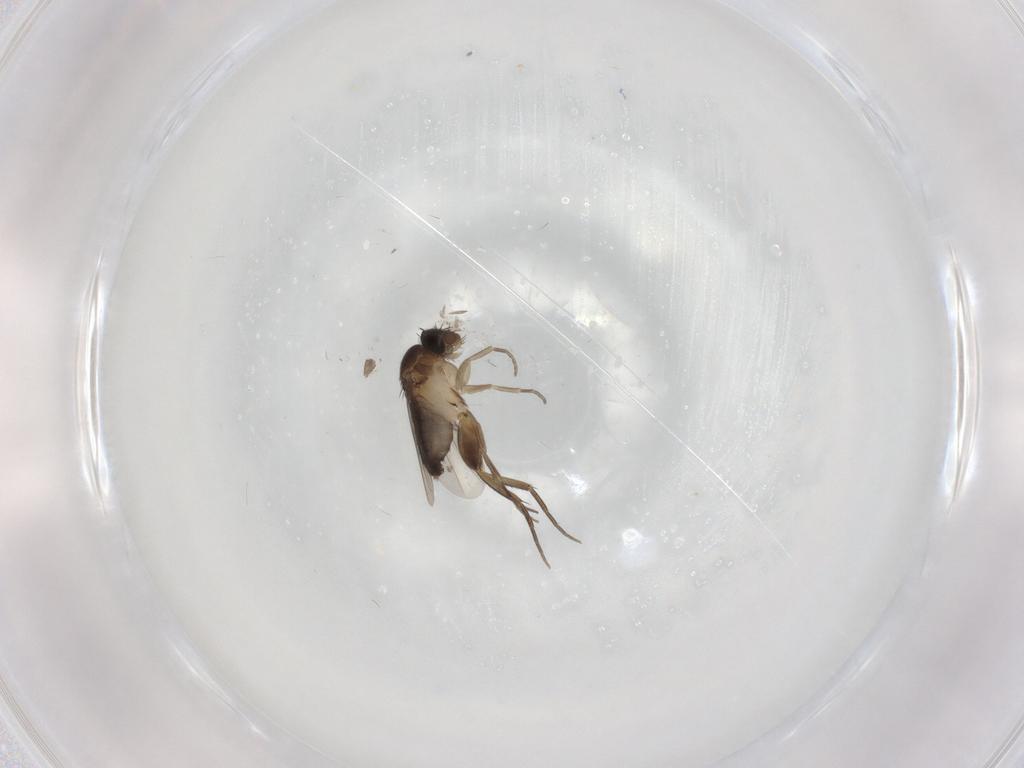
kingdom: Animalia
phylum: Arthropoda
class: Insecta
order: Diptera
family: Phoridae
